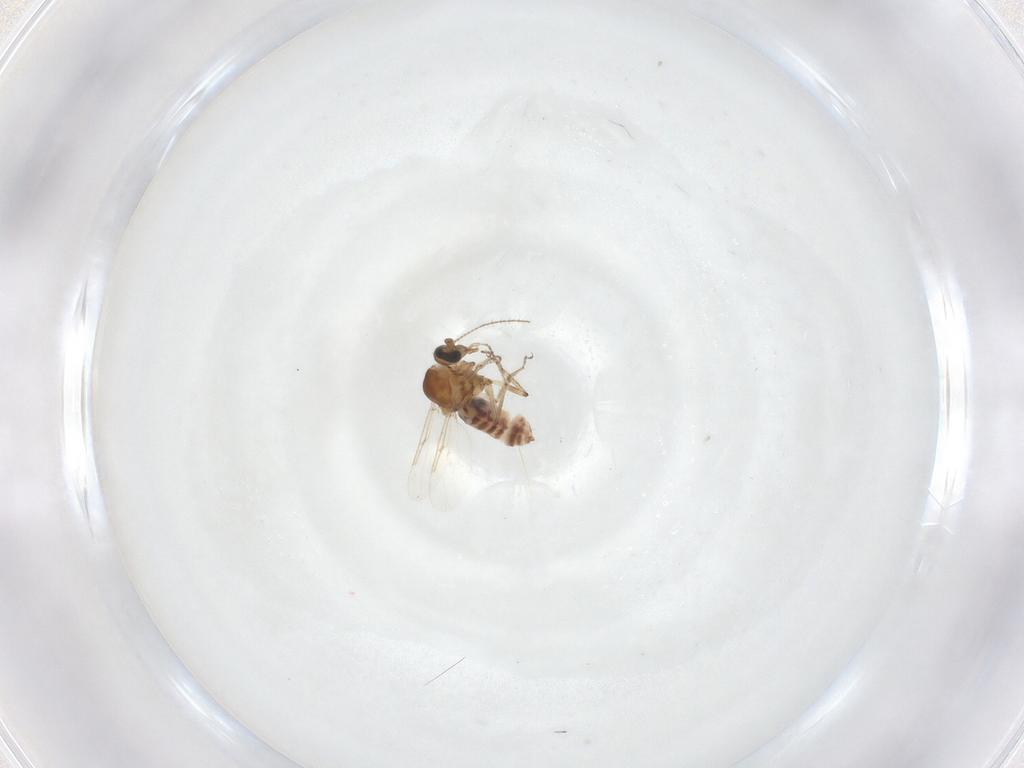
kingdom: Animalia
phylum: Arthropoda
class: Insecta
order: Diptera
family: Ceratopogonidae
